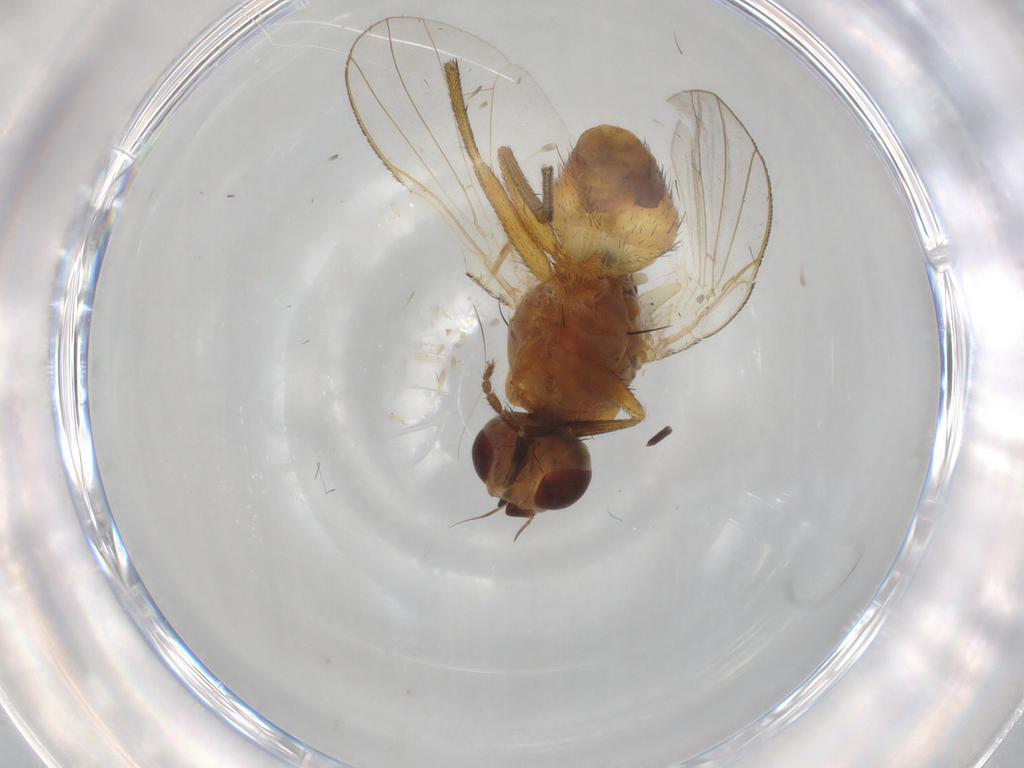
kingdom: Animalia
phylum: Arthropoda
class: Insecta
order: Diptera
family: Muscidae
